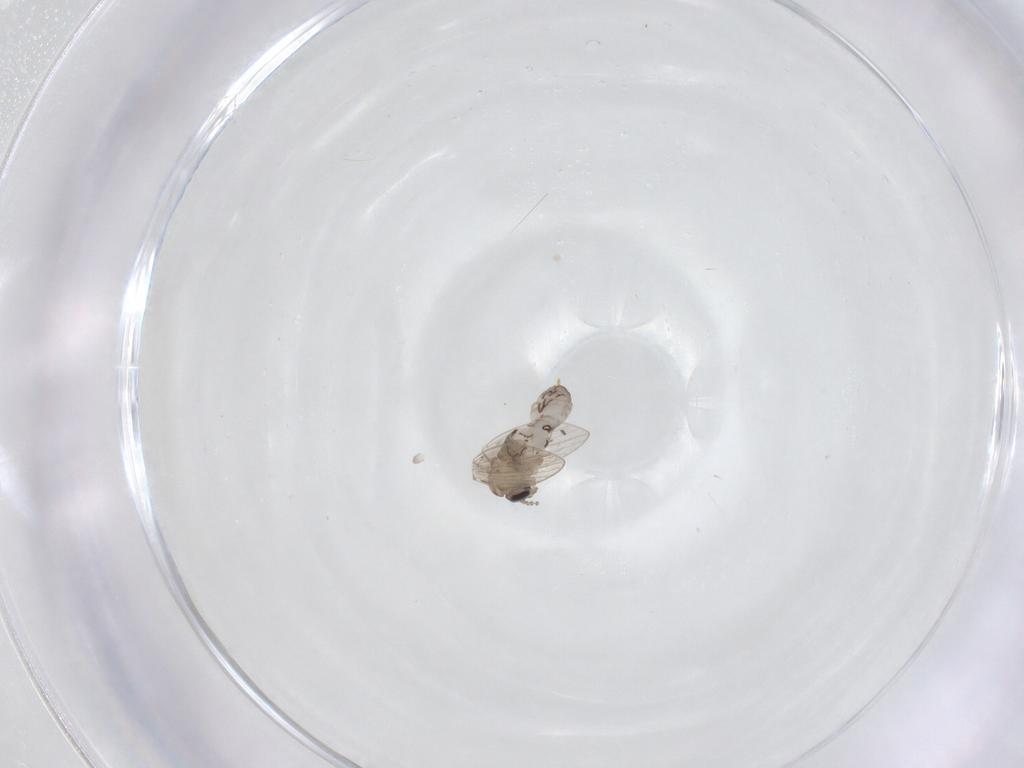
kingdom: Animalia
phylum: Arthropoda
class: Insecta
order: Diptera
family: Psychodidae
